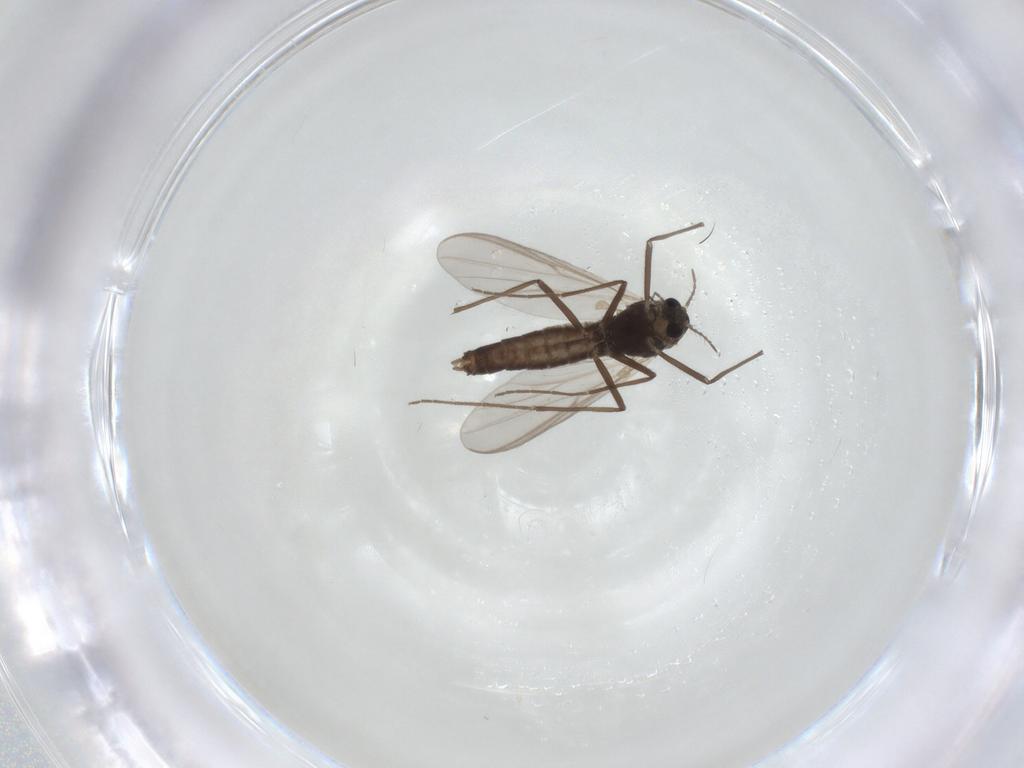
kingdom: Animalia
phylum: Arthropoda
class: Insecta
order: Diptera
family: Chironomidae
